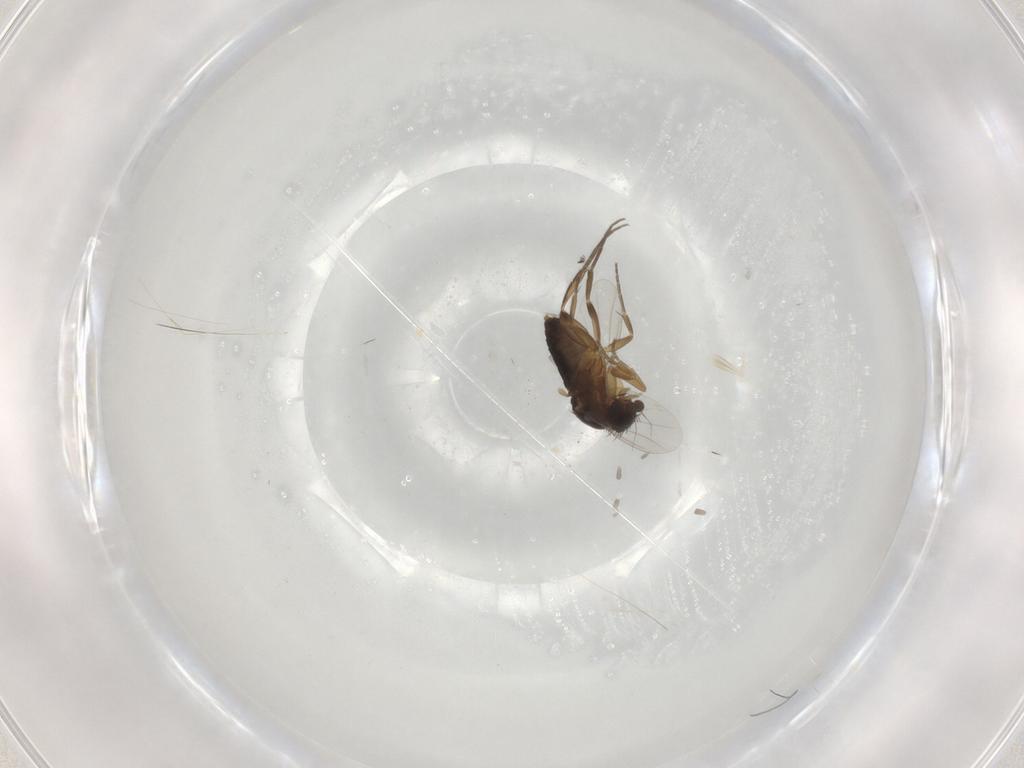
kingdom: Animalia
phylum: Arthropoda
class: Insecta
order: Diptera
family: Phoridae
